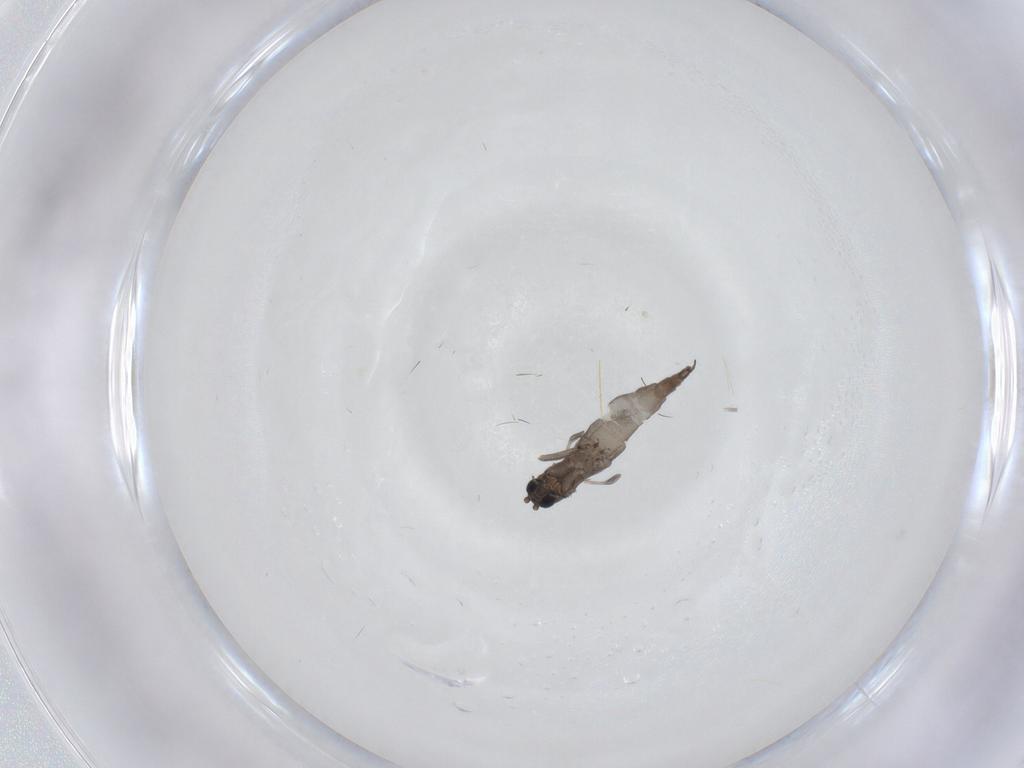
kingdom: Animalia
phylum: Arthropoda
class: Insecta
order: Diptera
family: Sciaridae
